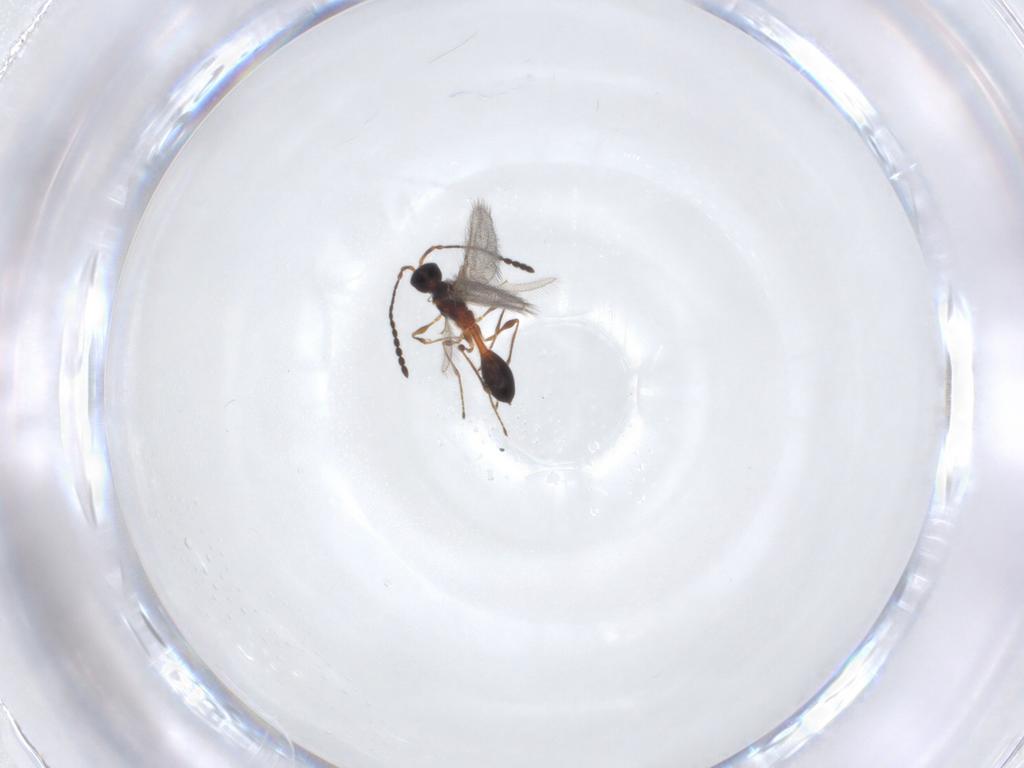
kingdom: Animalia
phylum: Arthropoda
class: Insecta
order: Hymenoptera
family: Diapriidae
